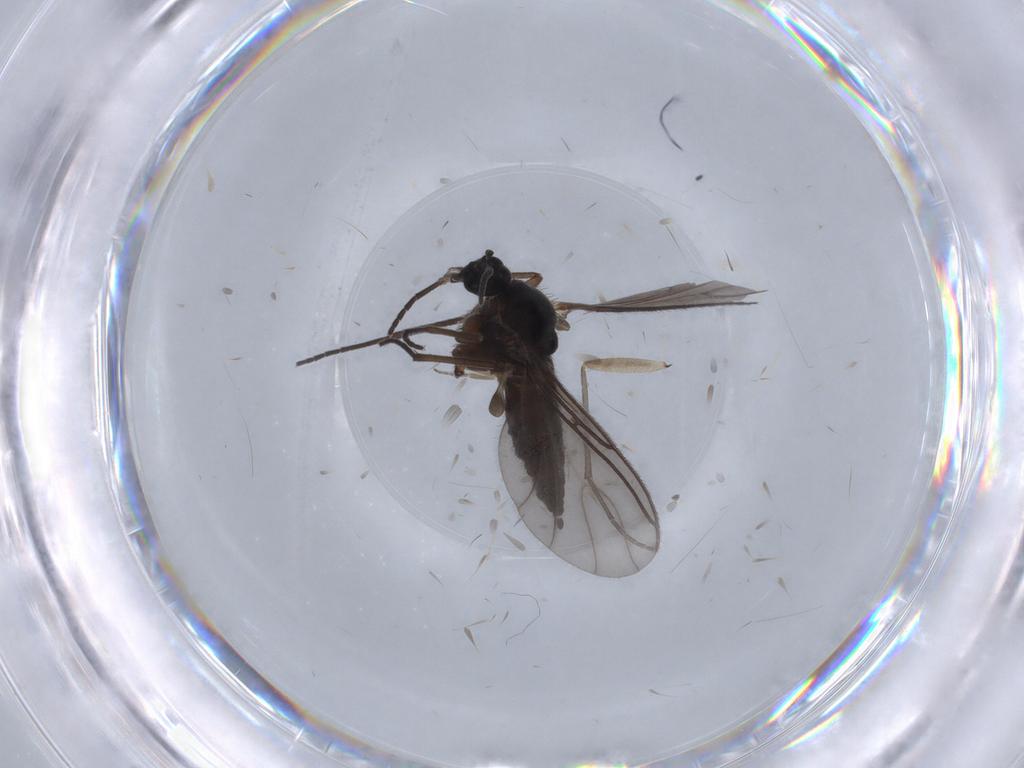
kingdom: Animalia
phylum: Arthropoda
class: Insecta
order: Diptera
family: Sciaridae
